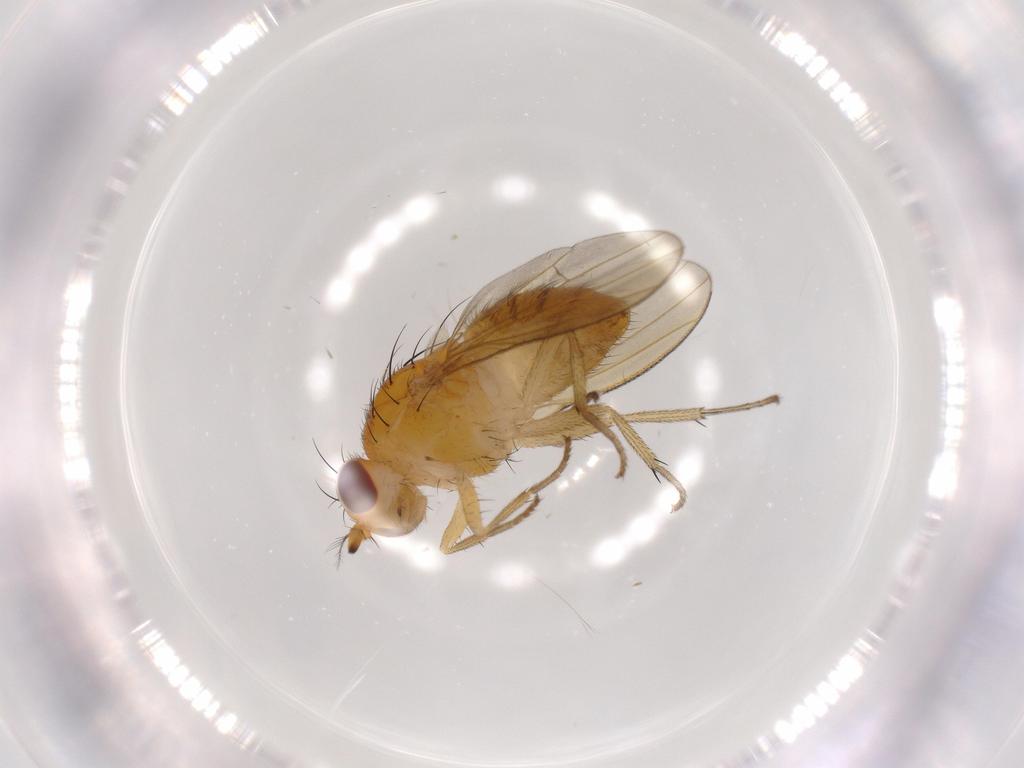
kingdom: Animalia
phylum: Arthropoda
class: Insecta
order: Diptera
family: Lauxaniidae
